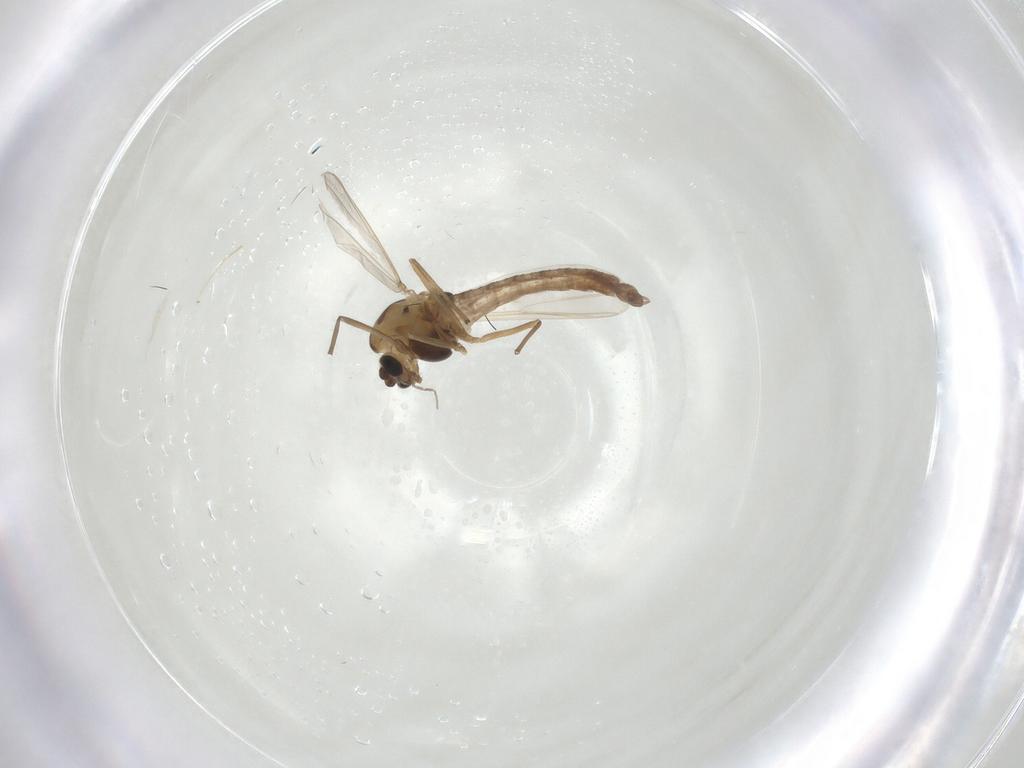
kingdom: Animalia
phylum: Arthropoda
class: Insecta
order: Diptera
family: Chironomidae
